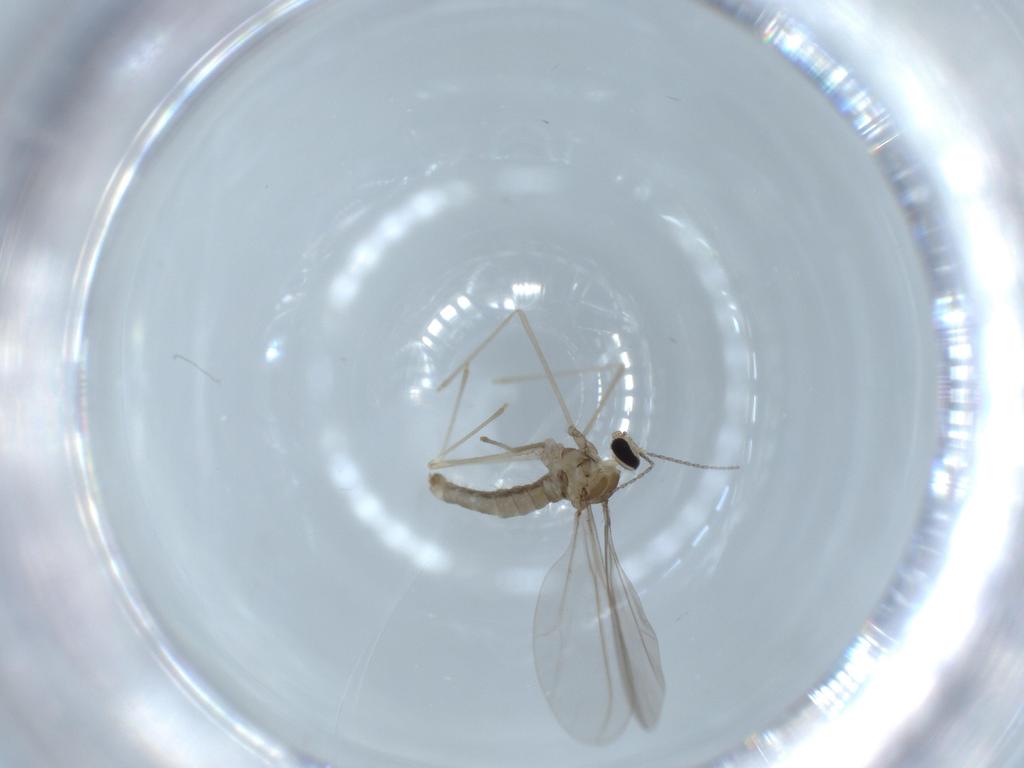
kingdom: Animalia
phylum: Arthropoda
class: Insecta
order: Diptera
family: Cecidomyiidae
